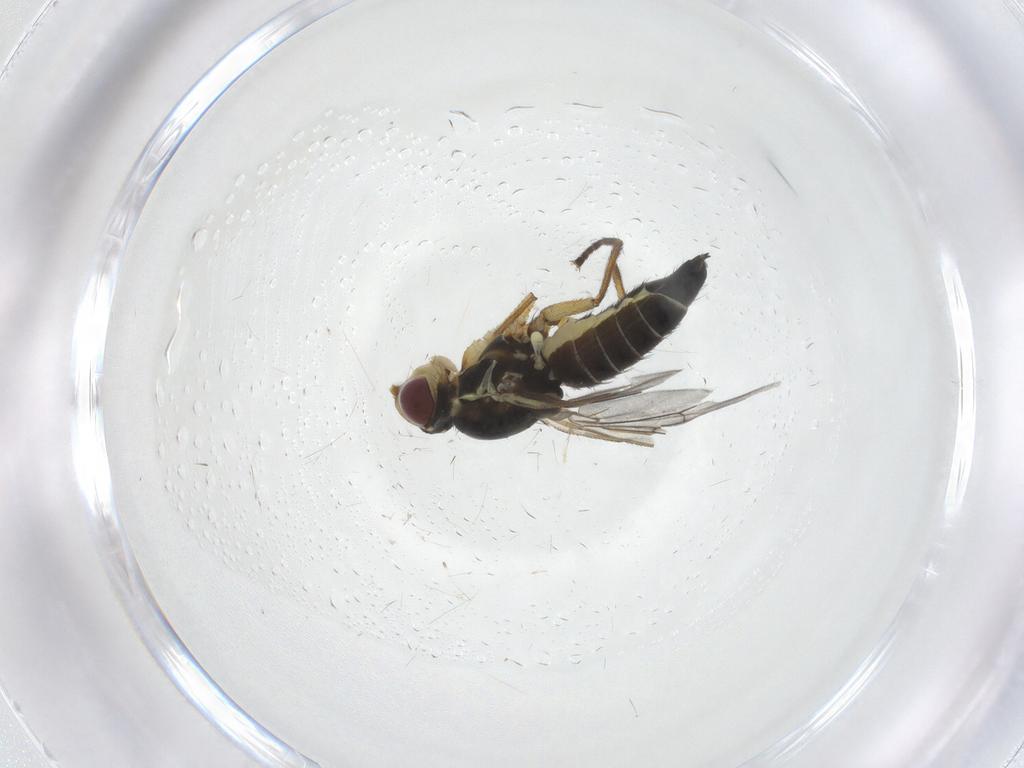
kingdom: Animalia
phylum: Arthropoda
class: Insecta
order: Diptera
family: Agromyzidae
